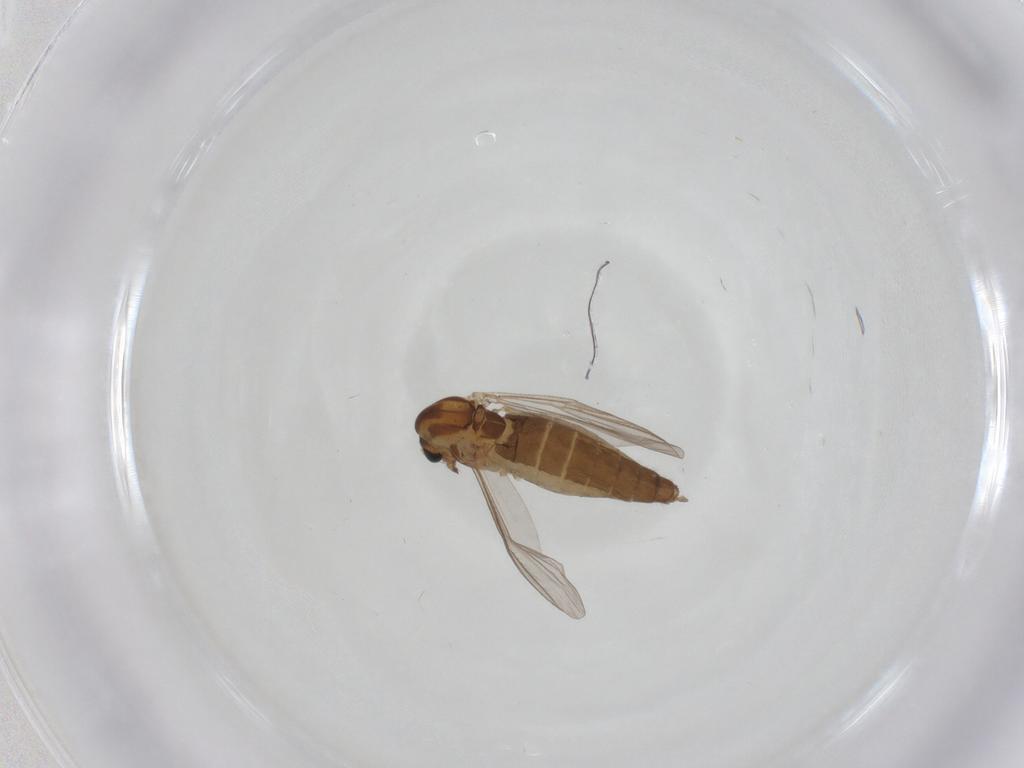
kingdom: Animalia
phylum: Arthropoda
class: Insecta
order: Diptera
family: Chironomidae
